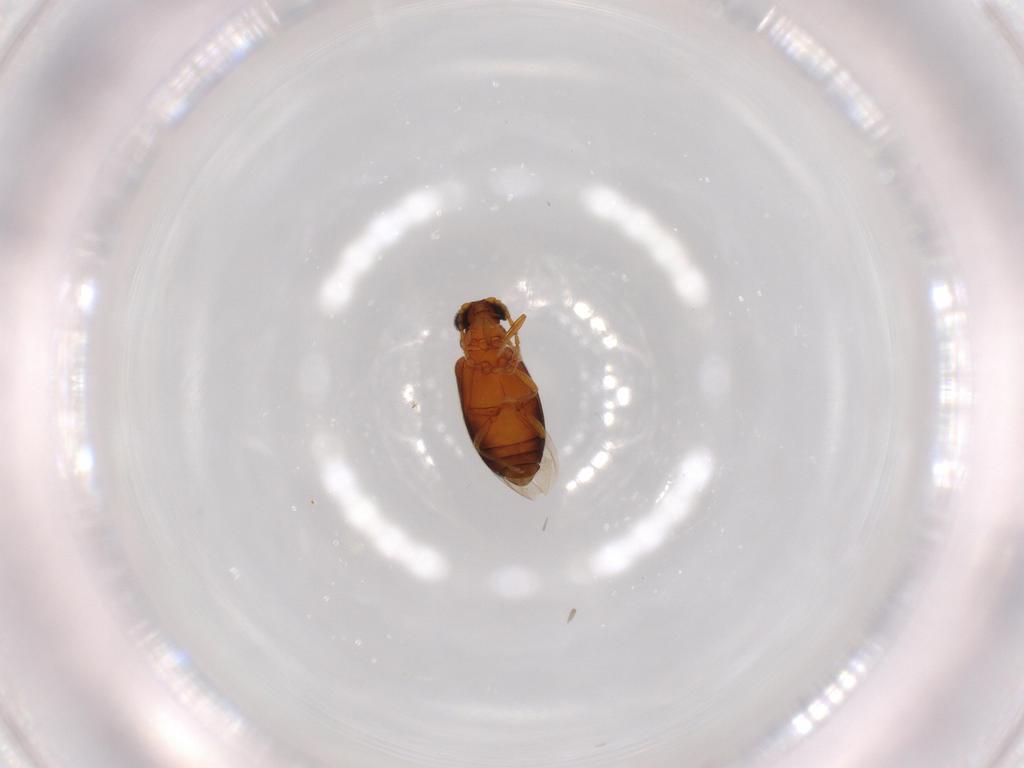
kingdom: Animalia
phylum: Arthropoda
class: Insecta
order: Coleoptera
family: Aderidae
